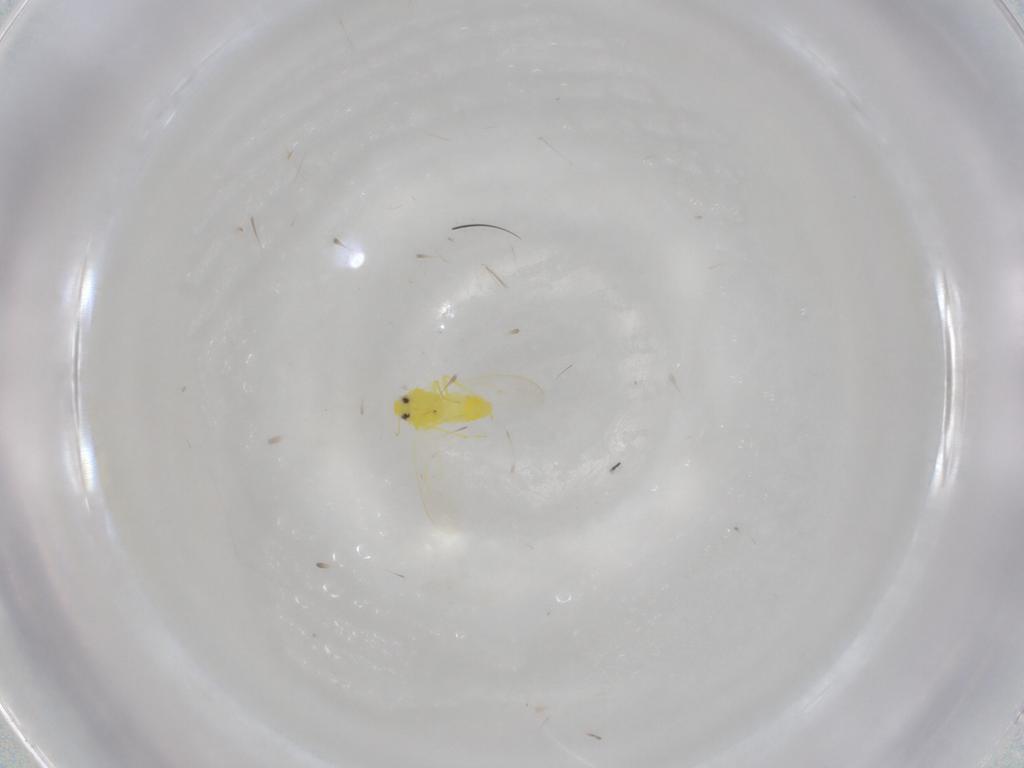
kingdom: Animalia
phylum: Arthropoda
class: Insecta
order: Hemiptera
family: Aleyrodidae
